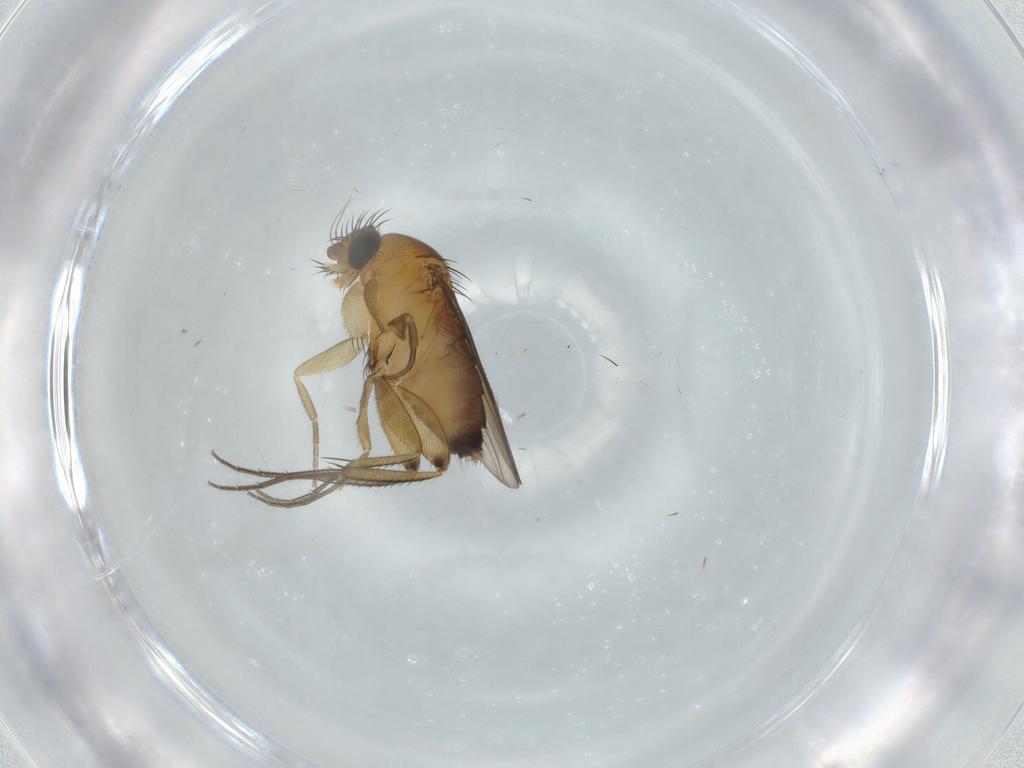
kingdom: Animalia
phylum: Arthropoda
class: Insecta
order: Diptera
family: Phoridae
